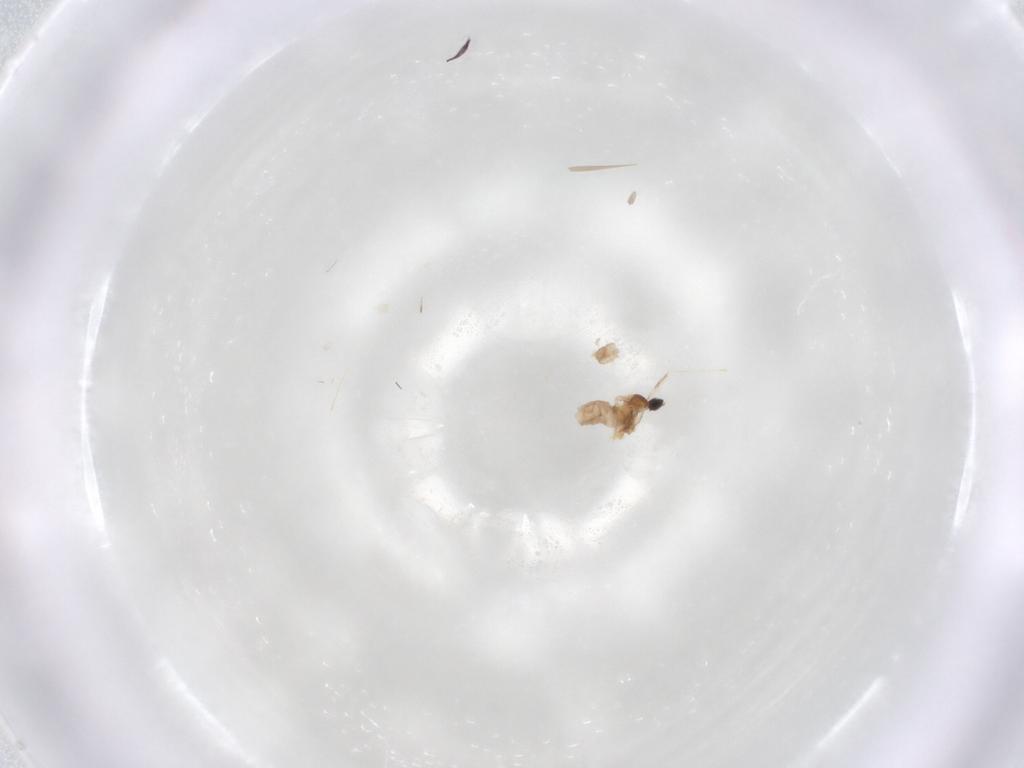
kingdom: Animalia
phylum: Arthropoda
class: Insecta
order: Diptera
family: Cecidomyiidae
